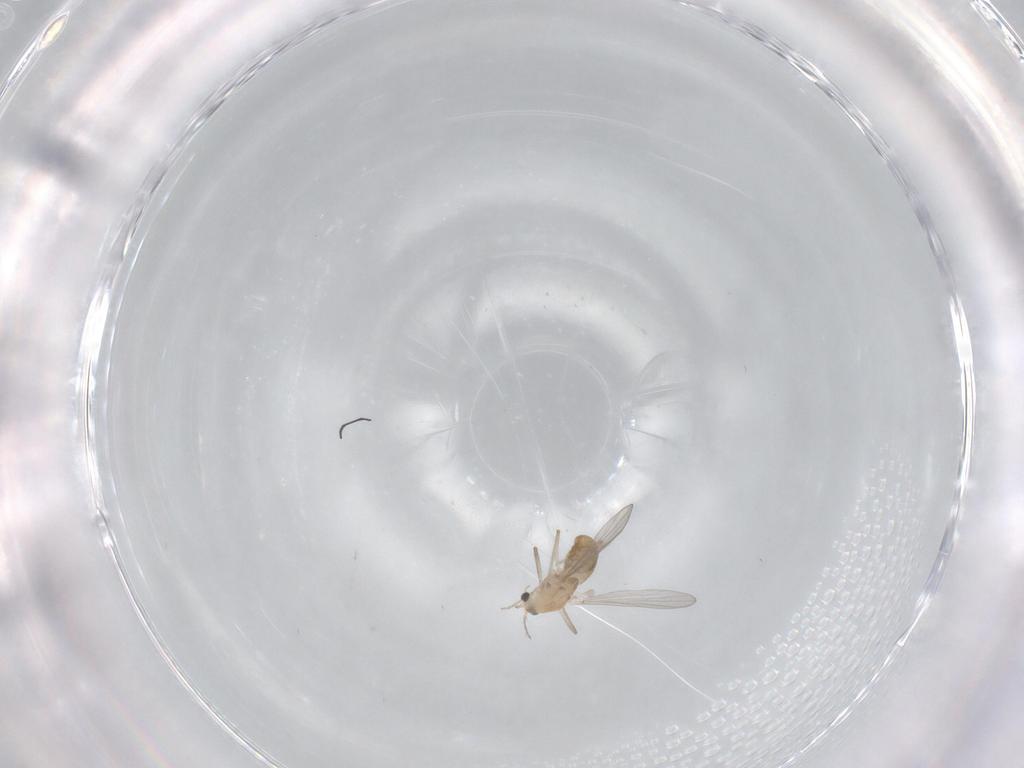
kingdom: Animalia
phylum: Arthropoda
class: Insecta
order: Diptera
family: Chironomidae
